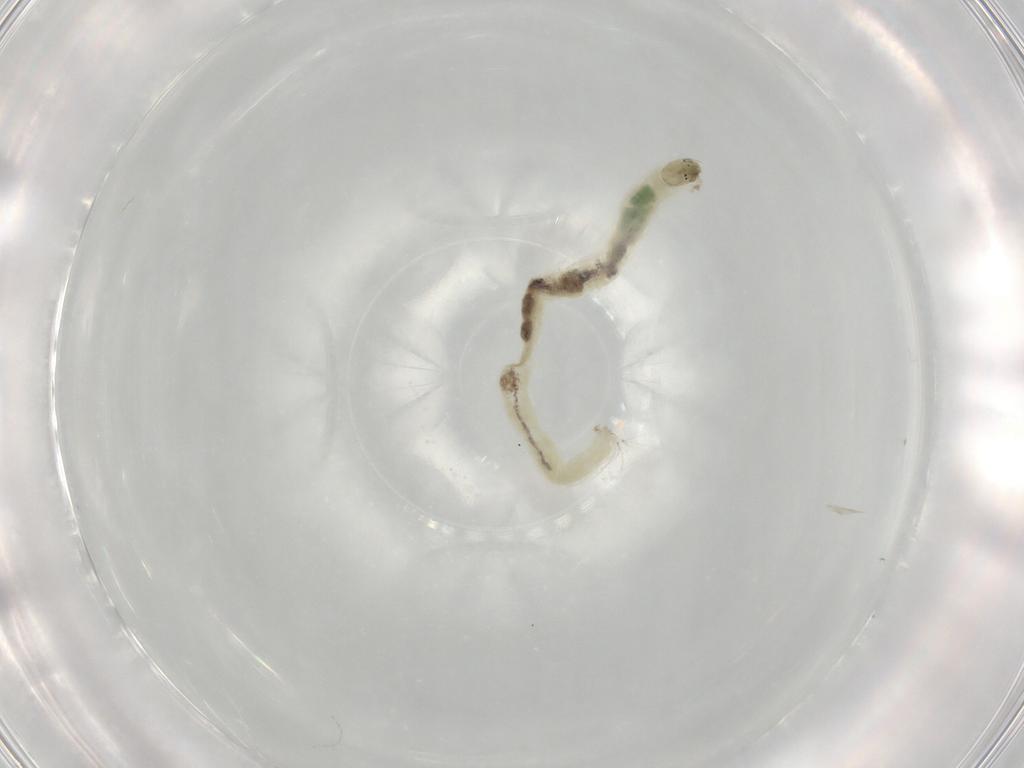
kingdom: Animalia
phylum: Arthropoda
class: Insecta
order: Diptera
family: Chironomidae
